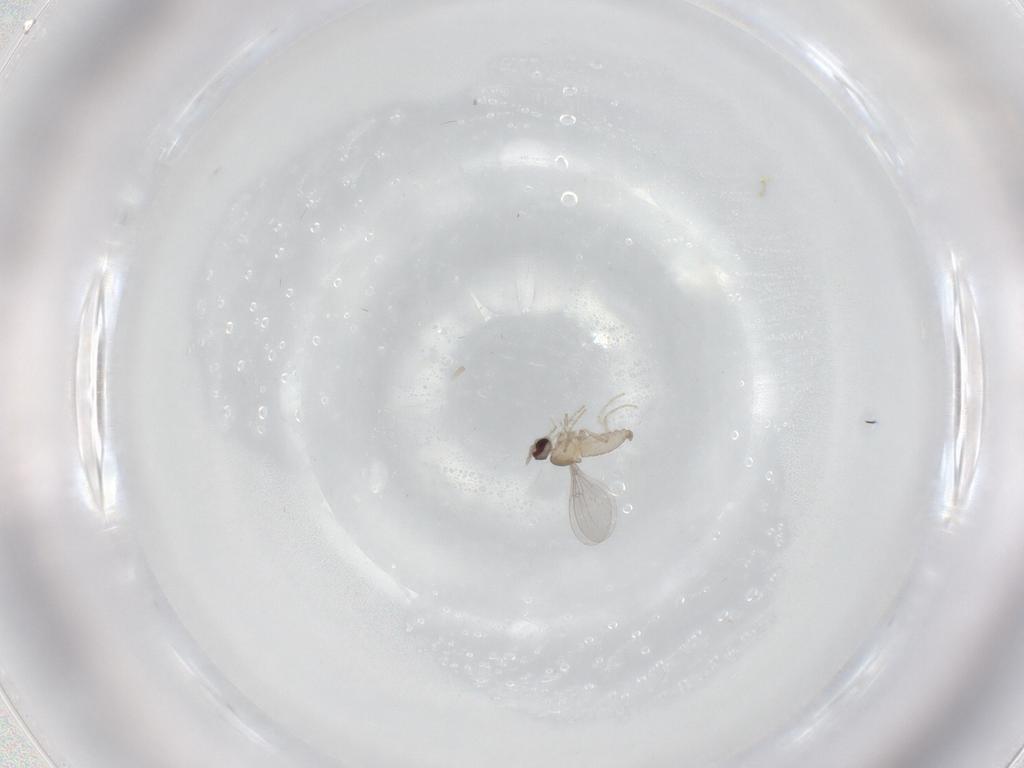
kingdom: Animalia
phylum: Arthropoda
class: Insecta
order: Diptera
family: Cecidomyiidae
